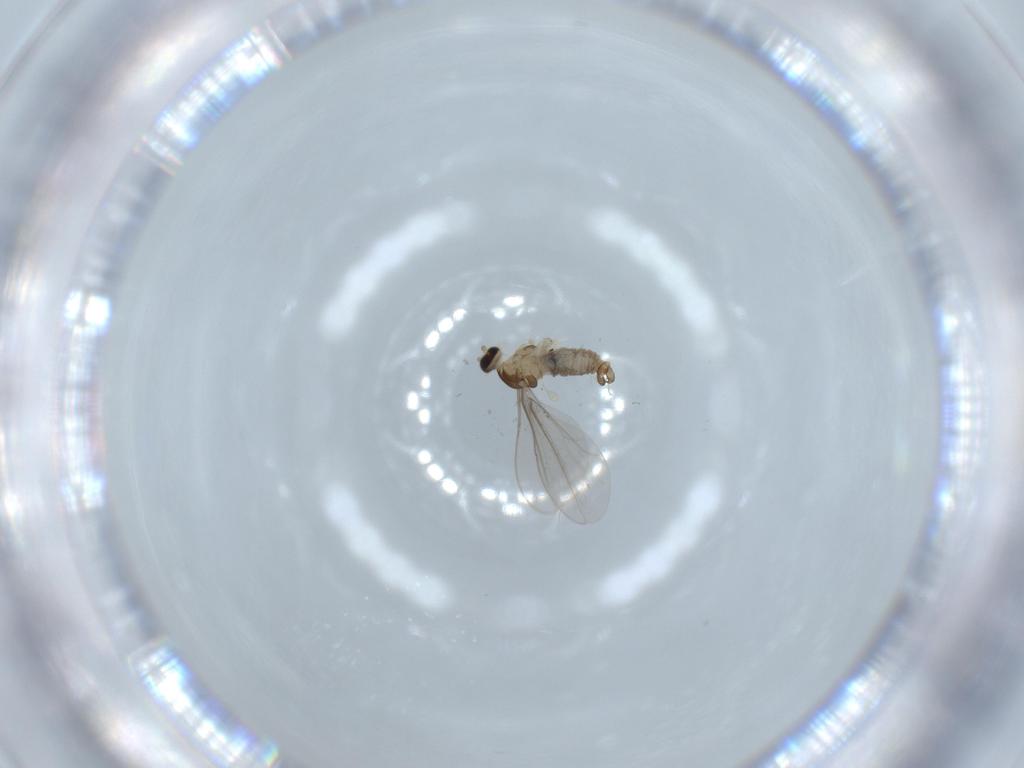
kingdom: Animalia
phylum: Arthropoda
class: Insecta
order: Diptera
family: Cecidomyiidae
